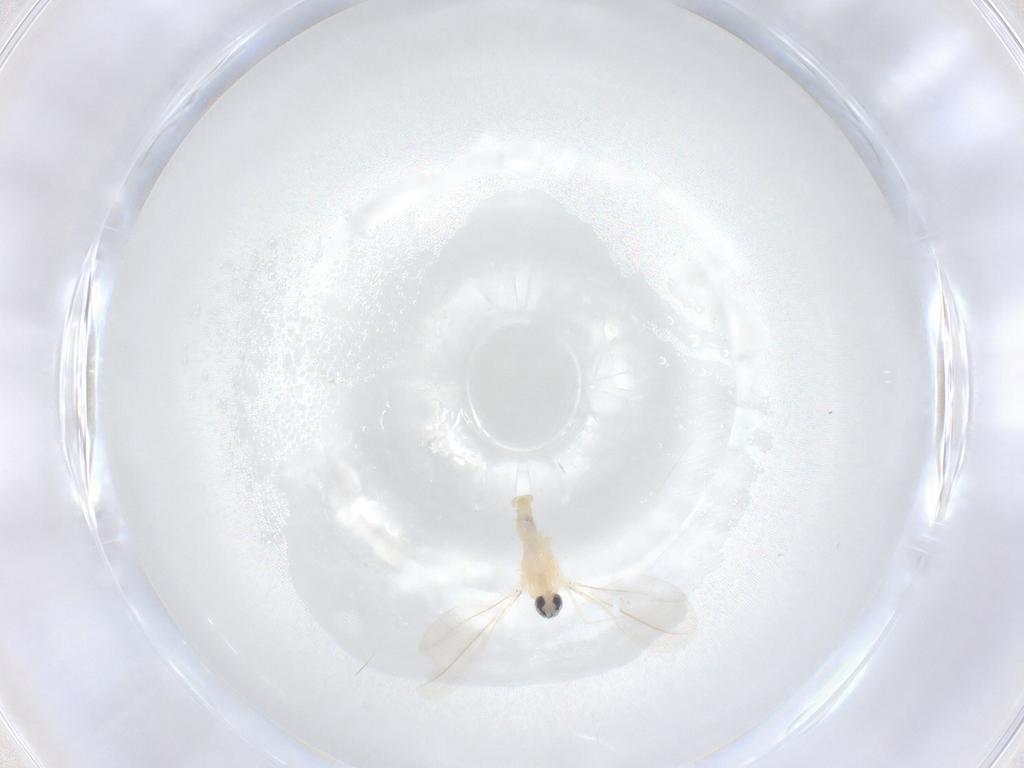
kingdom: Animalia
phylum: Arthropoda
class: Insecta
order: Diptera
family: Cecidomyiidae
